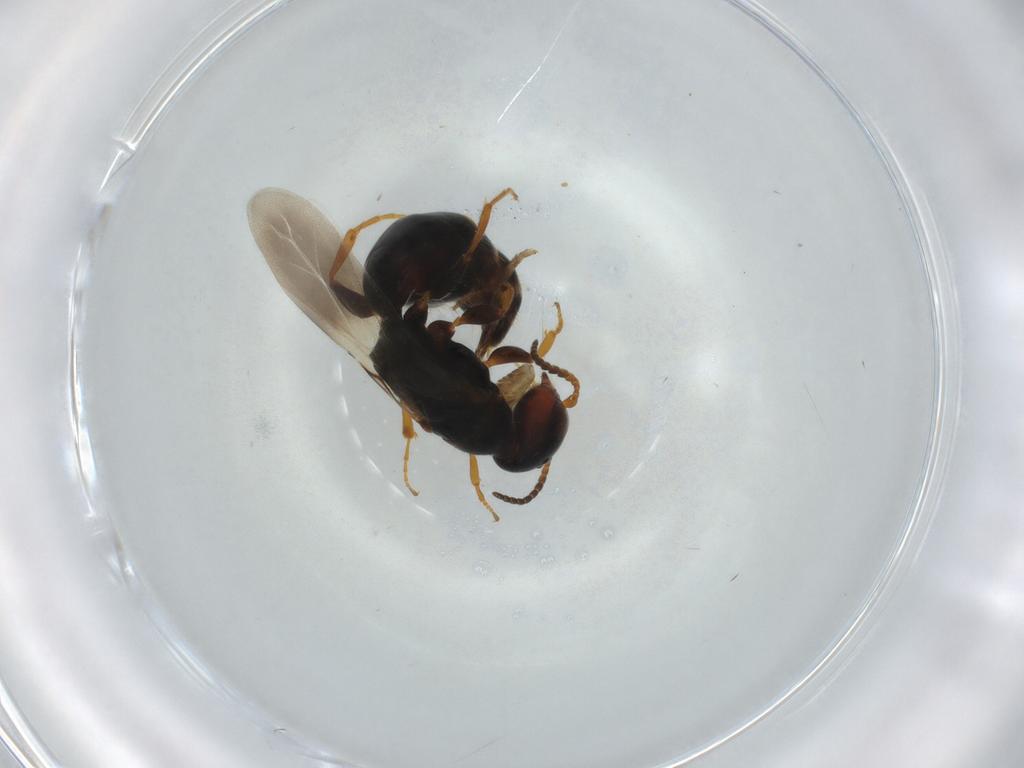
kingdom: Animalia
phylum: Arthropoda
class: Insecta
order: Hymenoptera
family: Bethylidae
